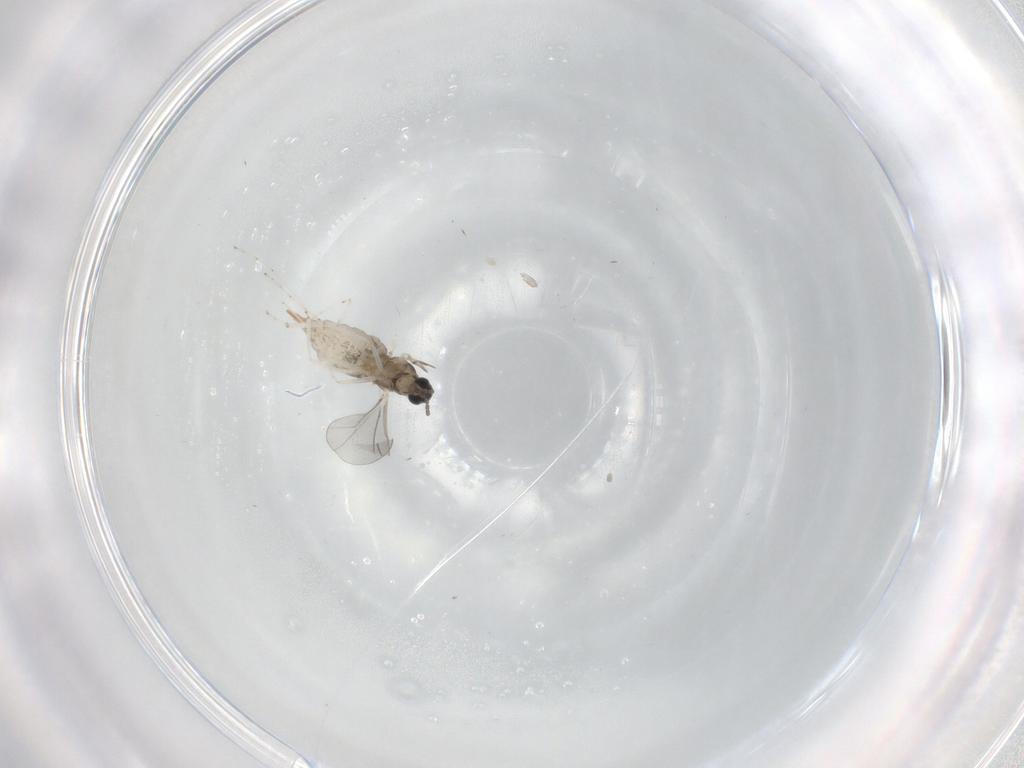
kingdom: Animalia
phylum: Arthropoda
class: Insecta
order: Diptera
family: Cecidomyiidae
